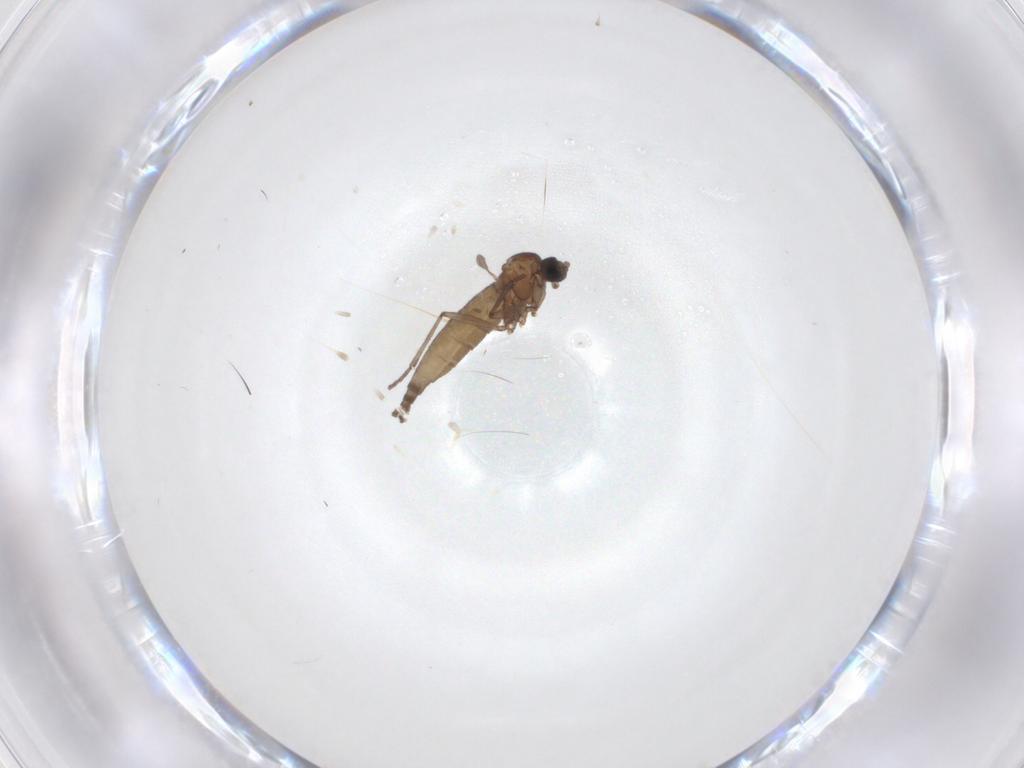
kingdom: Animalia
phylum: Arthropoda
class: Insecta
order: Diptera
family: Sciaridae
